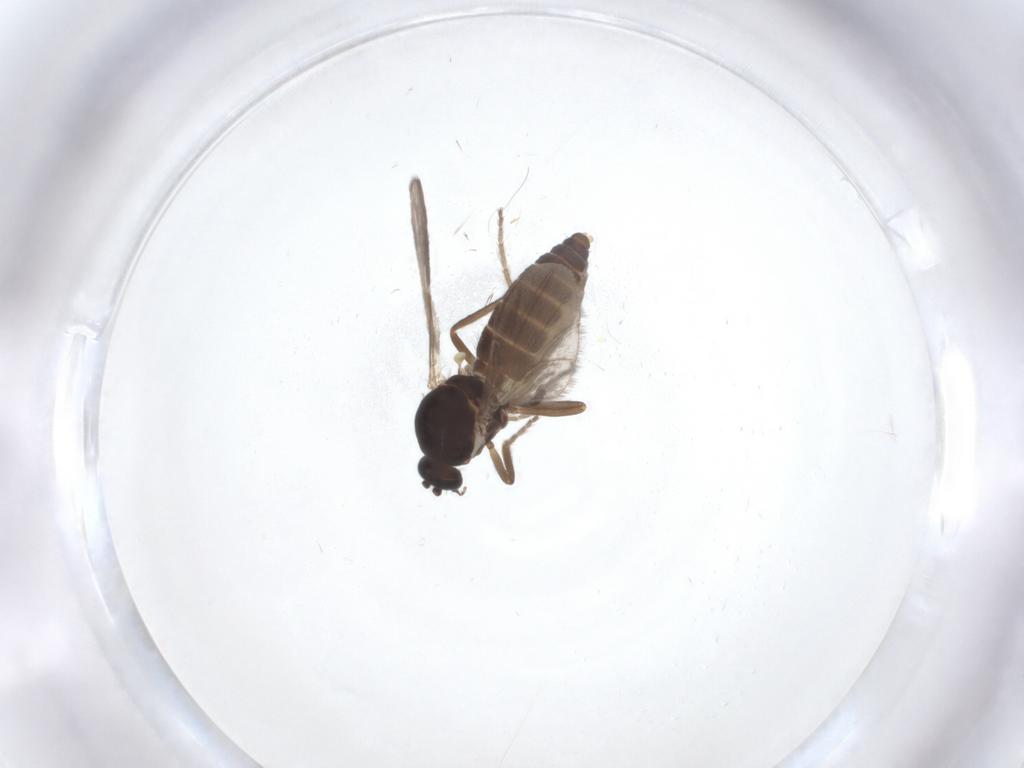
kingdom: Animalia
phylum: Arthropoda
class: Insecta
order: Diptera
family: Ceratopogonidae
